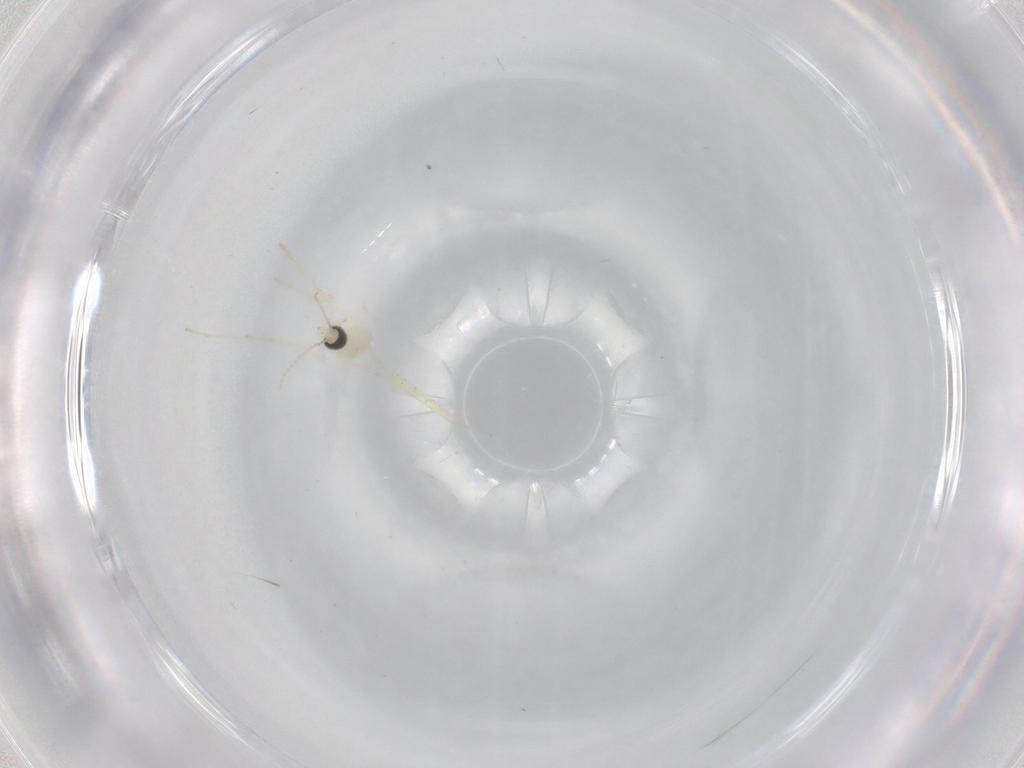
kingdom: Animalia
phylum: Arthropoda
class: Insecta
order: Diptera
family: Cecidomyiidae
